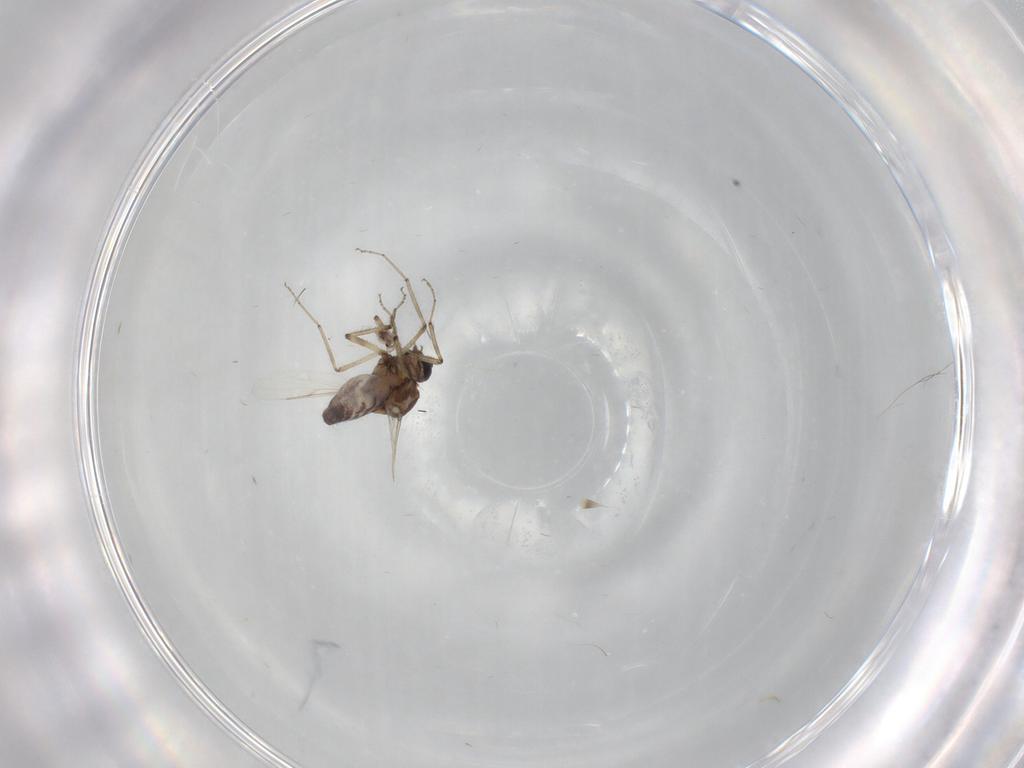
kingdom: Animalia
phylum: Arthropoda
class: Insecta
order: Diptera
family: Ceratopogonidae
